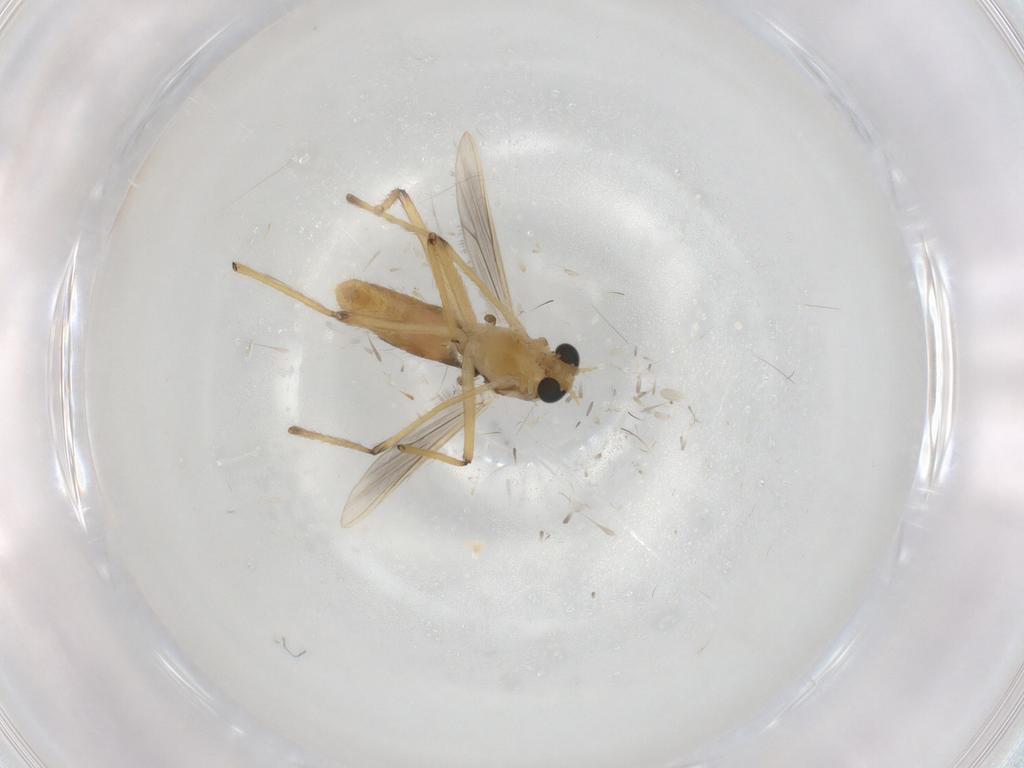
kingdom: Animalia
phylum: Arthropoda
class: Insecta
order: Diptera
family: Chironomidae
